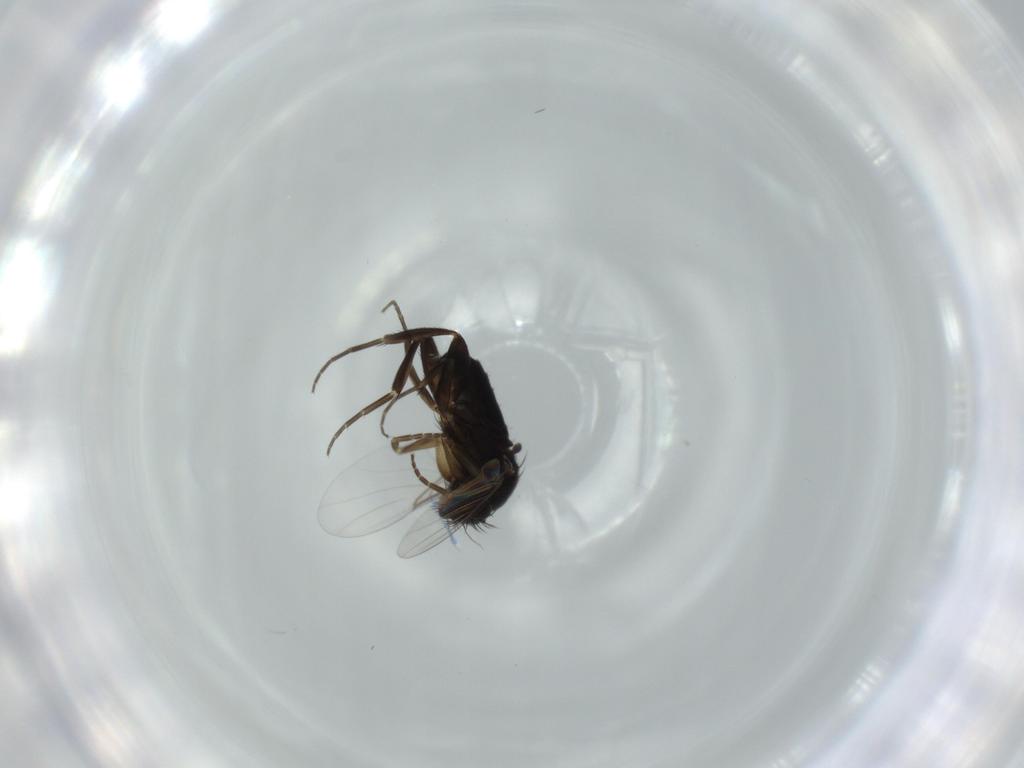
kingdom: Animalia
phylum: Arthropoda
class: Insecta
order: Diptera
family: Phoridae
